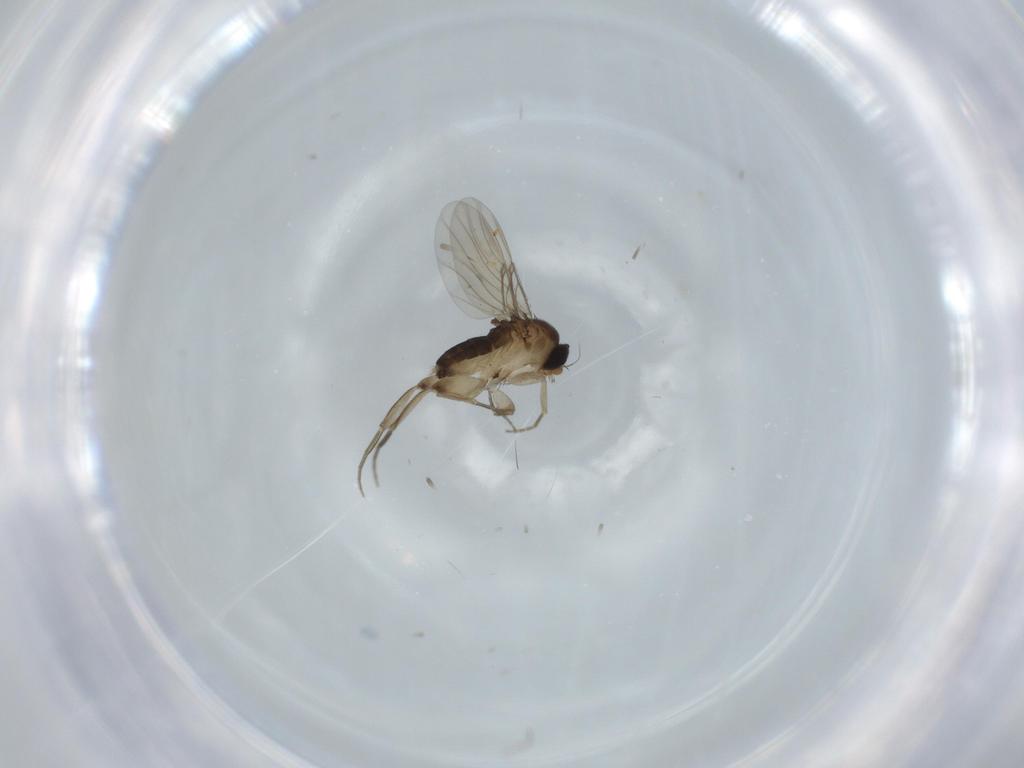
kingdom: Animalia
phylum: Arthropoda
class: Insecta
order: Diptera
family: Phoridae
